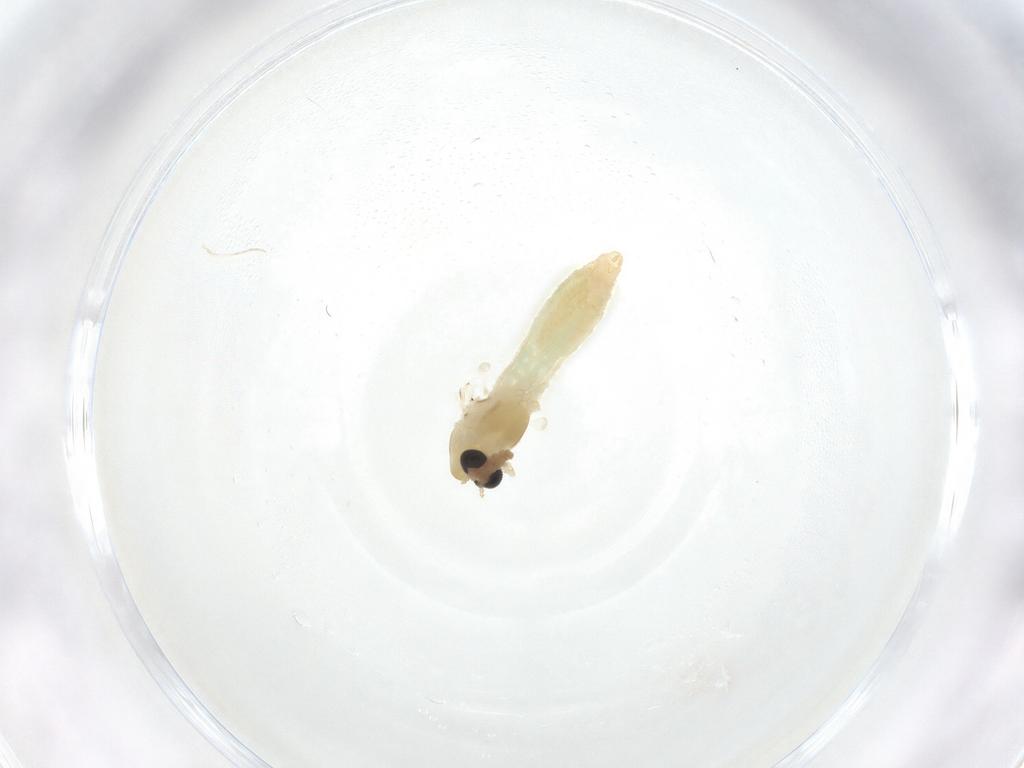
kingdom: Animalia
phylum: Arthropoda
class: Insecta
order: Diptera
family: Chironomidae
